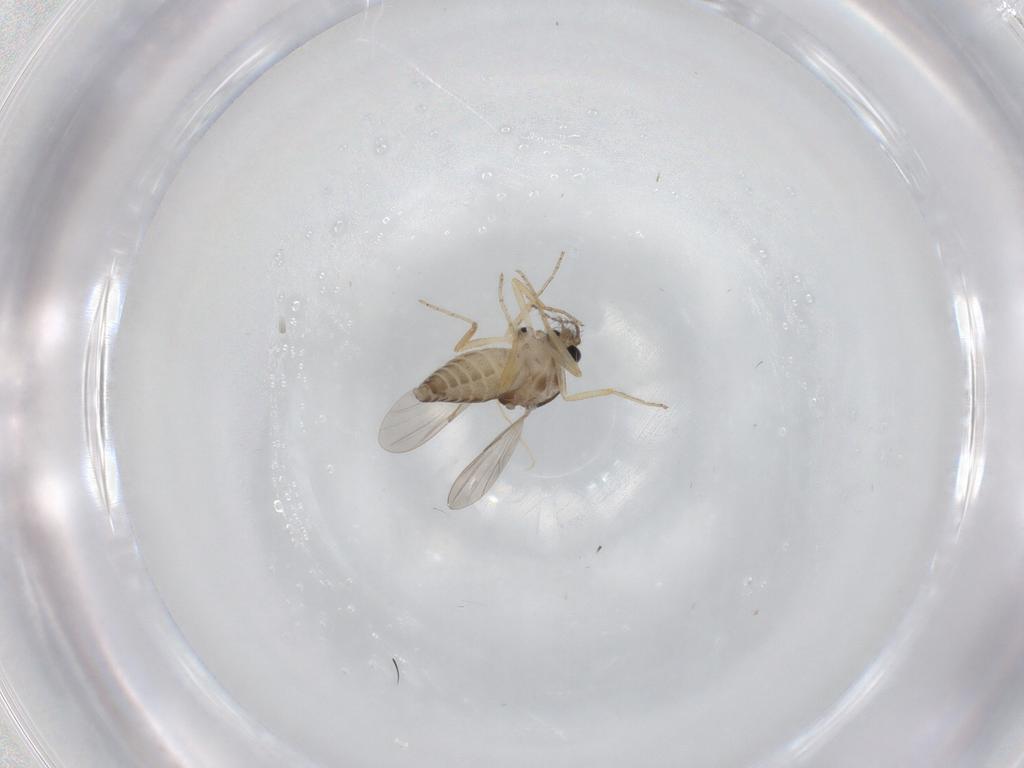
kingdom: Animalia
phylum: Arthropoda
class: Insecta
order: Diptera
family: Ceratopogonidae
